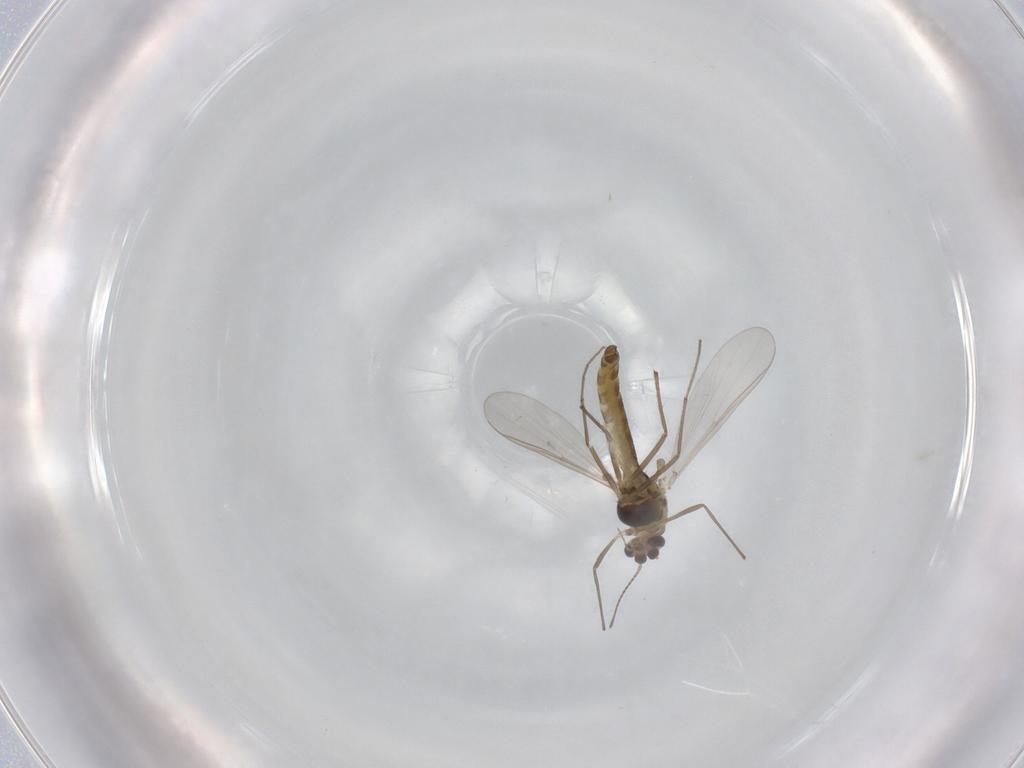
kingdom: Animalia
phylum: Arthropoda
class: Insecta
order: Diptera
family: Chironomidae
